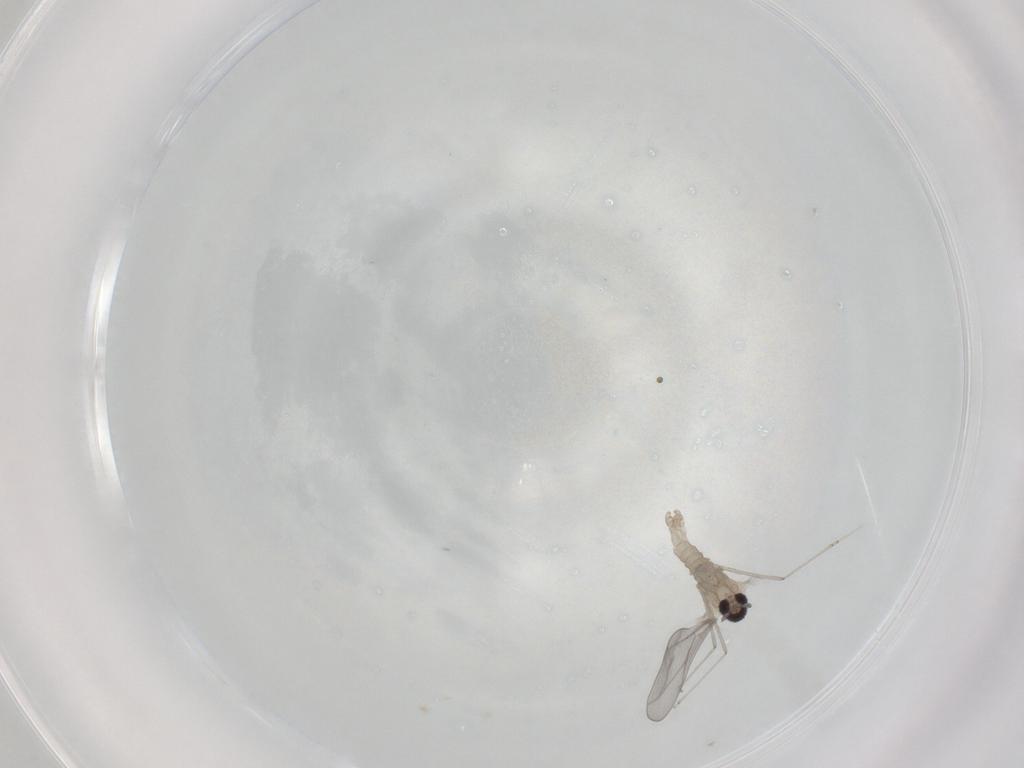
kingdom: Animalia
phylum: Arthropoda
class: Insecta
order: Diptera
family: Cecidomyiidae
